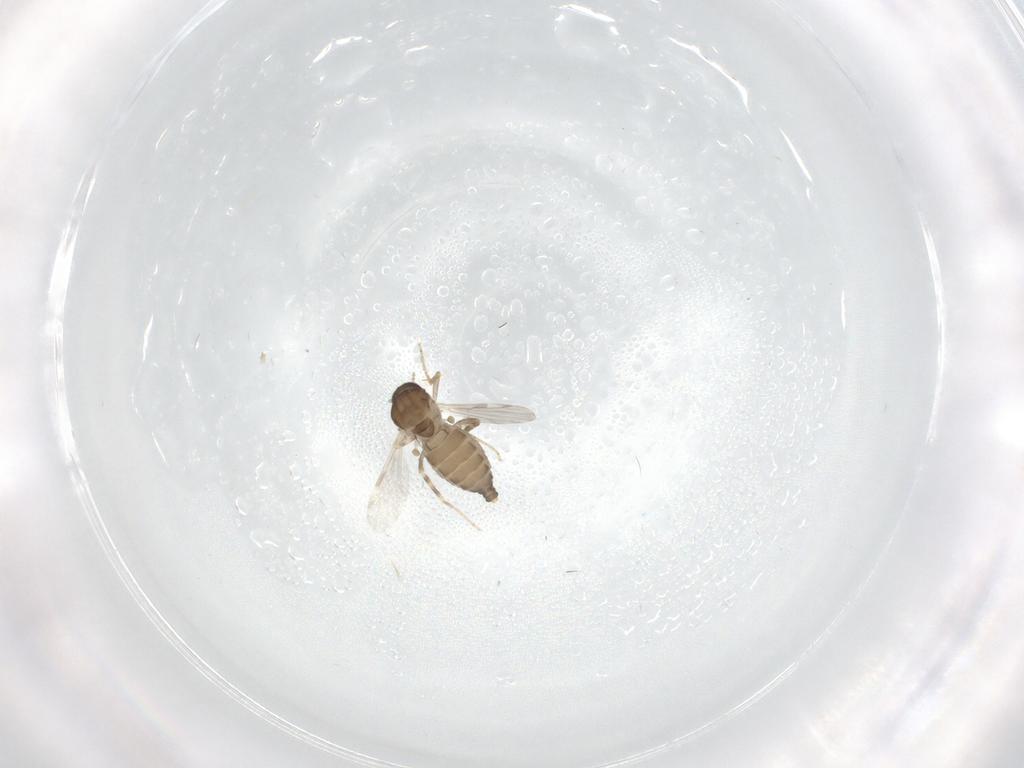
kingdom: Animalia
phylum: Arthropoda
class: Insecta
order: Diptera
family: Ceratopogonidae
